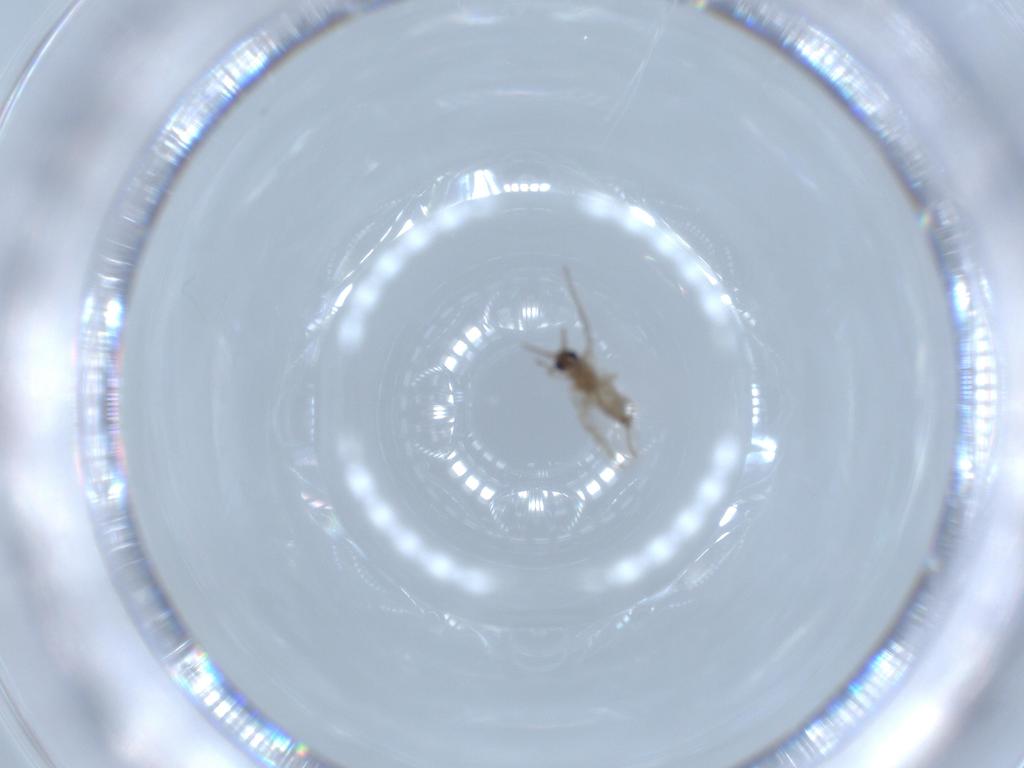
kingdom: Animalia
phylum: Arthropoda
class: Insecta
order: Diptera
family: Cecidomyiidae
